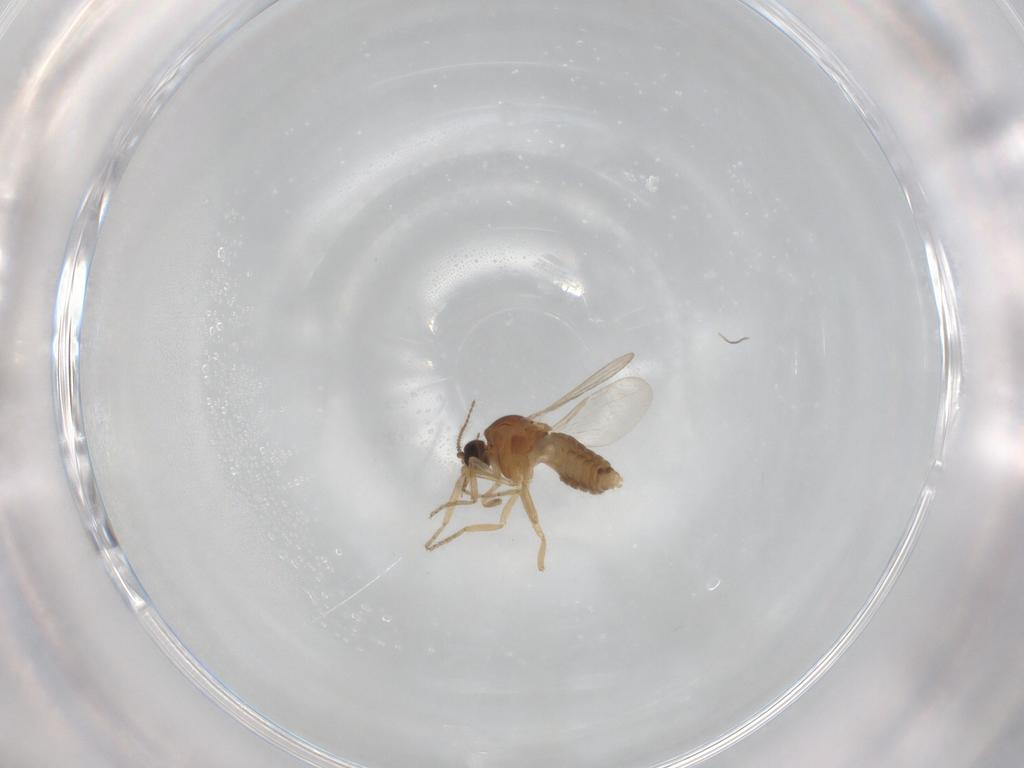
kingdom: Animalia
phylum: Arthropoda
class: Insecta
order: Diptera
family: Ceratopogonidae
